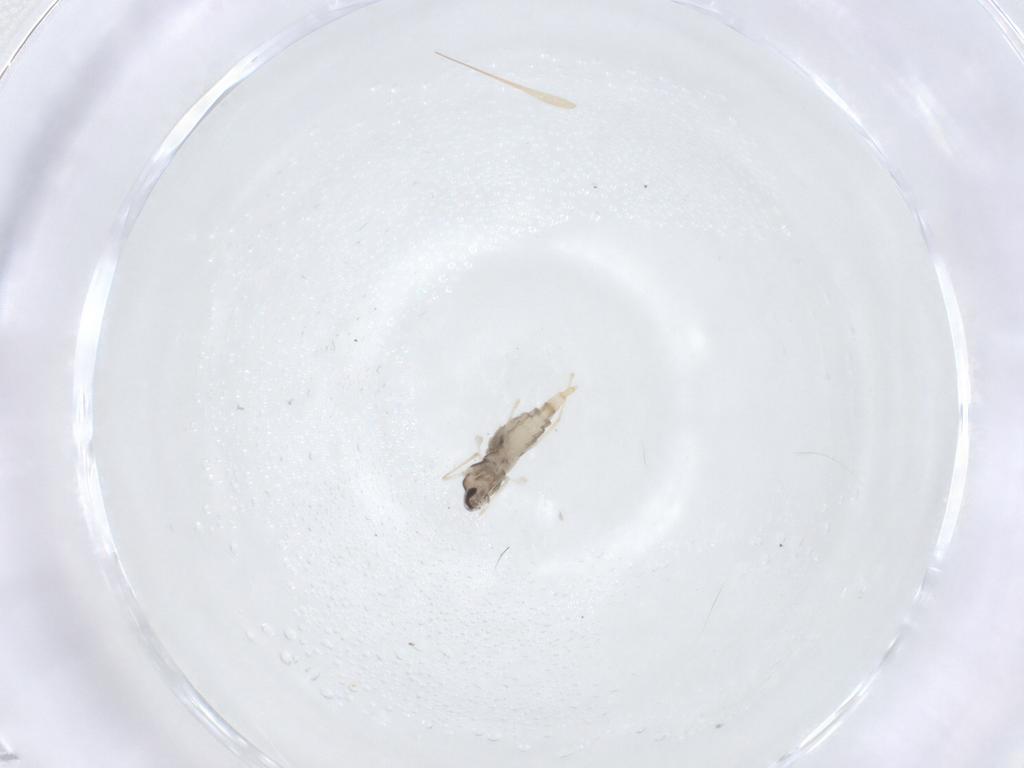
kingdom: Animalia
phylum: Arthropoda
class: Insecta
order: Diptera
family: Cecidomyiidae
